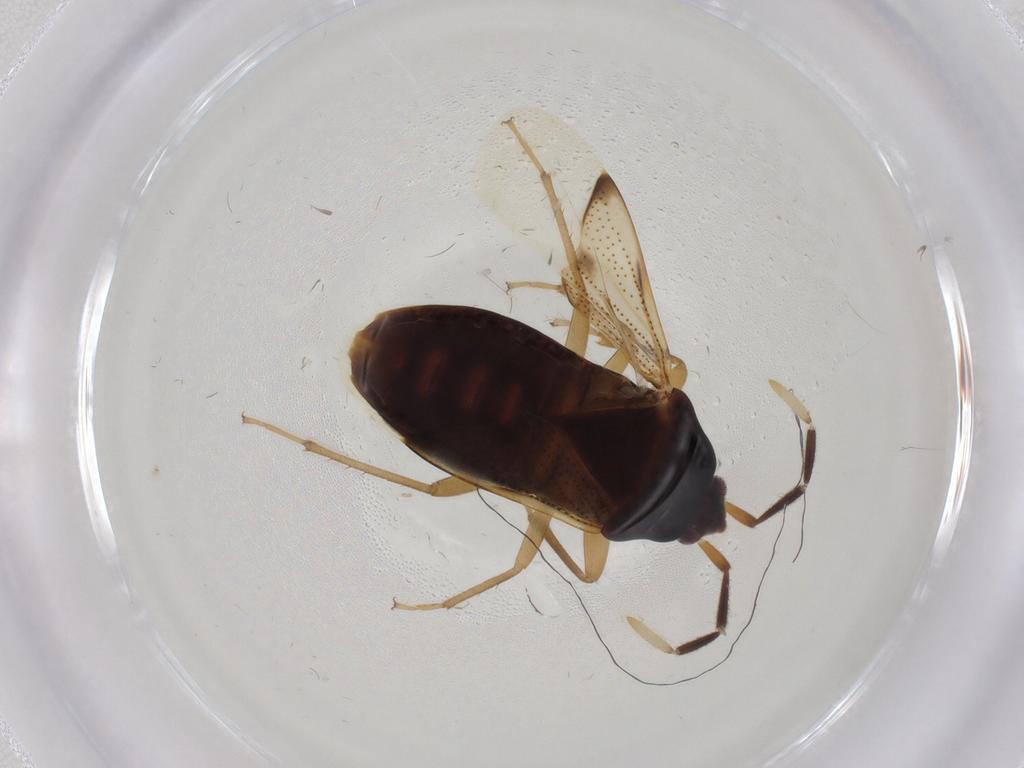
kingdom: Animalia
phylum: Arthropoda
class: Insecta
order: Hemiptera
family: Rhyparochromidae
